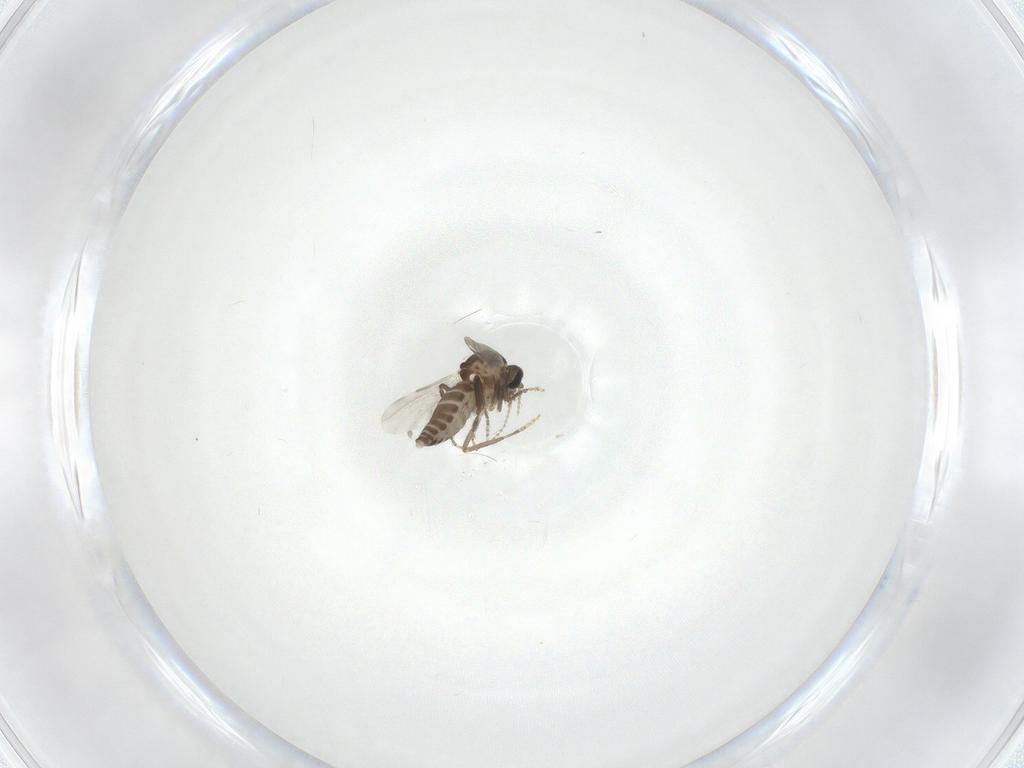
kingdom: Animalia
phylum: Arthropoda
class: Insecta
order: Diptera
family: Ceratopogonidae
